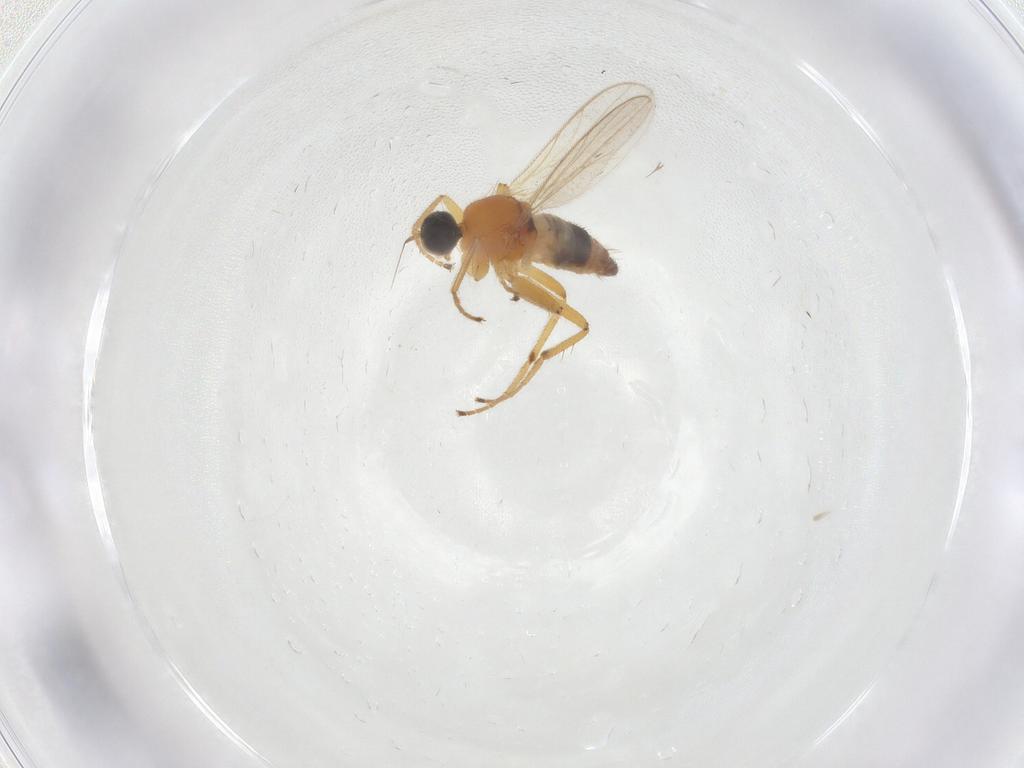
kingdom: Animalia
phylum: Arthropoda
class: Insecta
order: Diptera
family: Hybotidae
